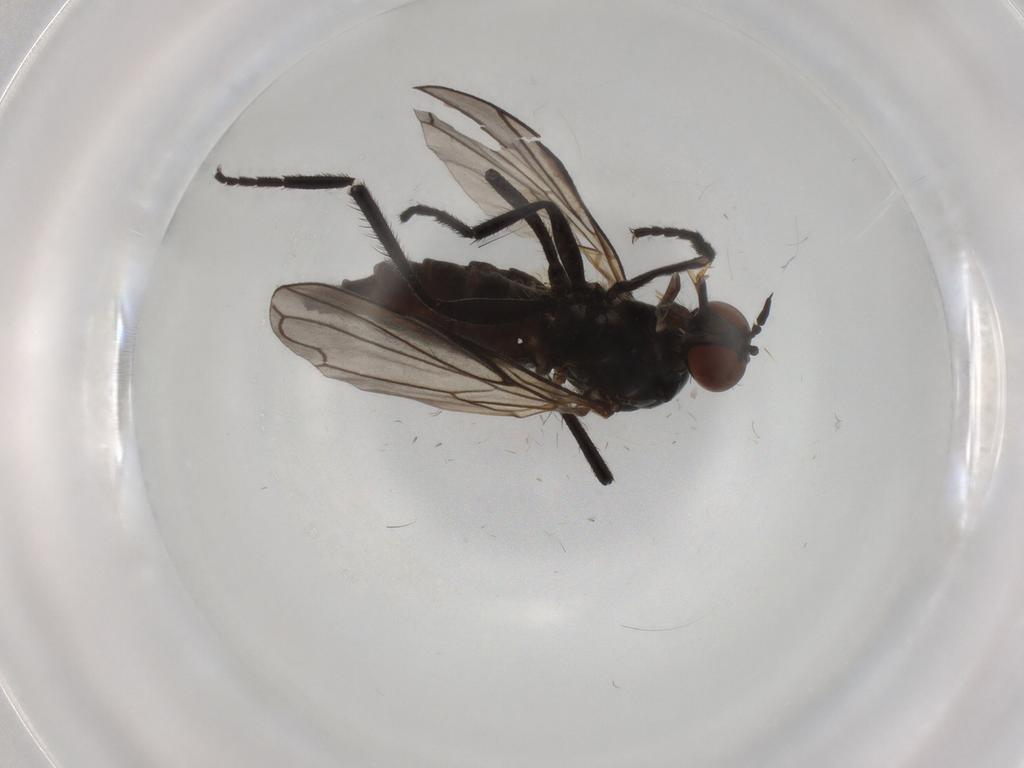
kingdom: Animalia
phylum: Arthropoda
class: Insecta
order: Diptera
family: Empididae
